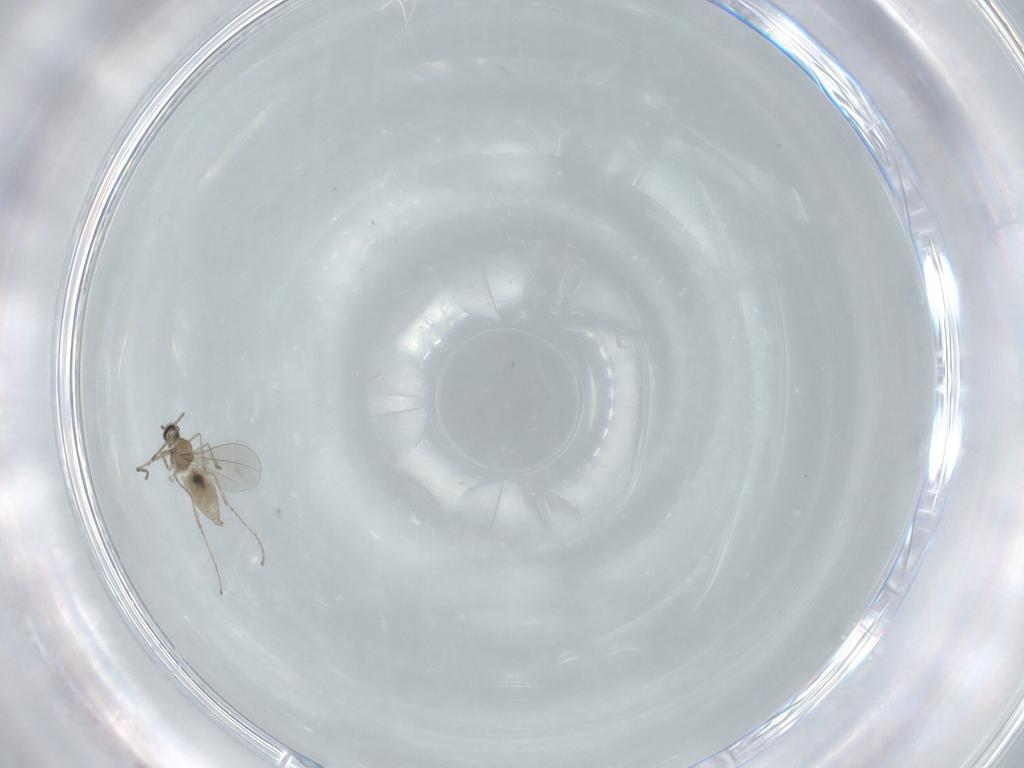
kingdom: Animalia
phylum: Arthropoda
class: Insecta
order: Diptera
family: Cecidomyiidae
